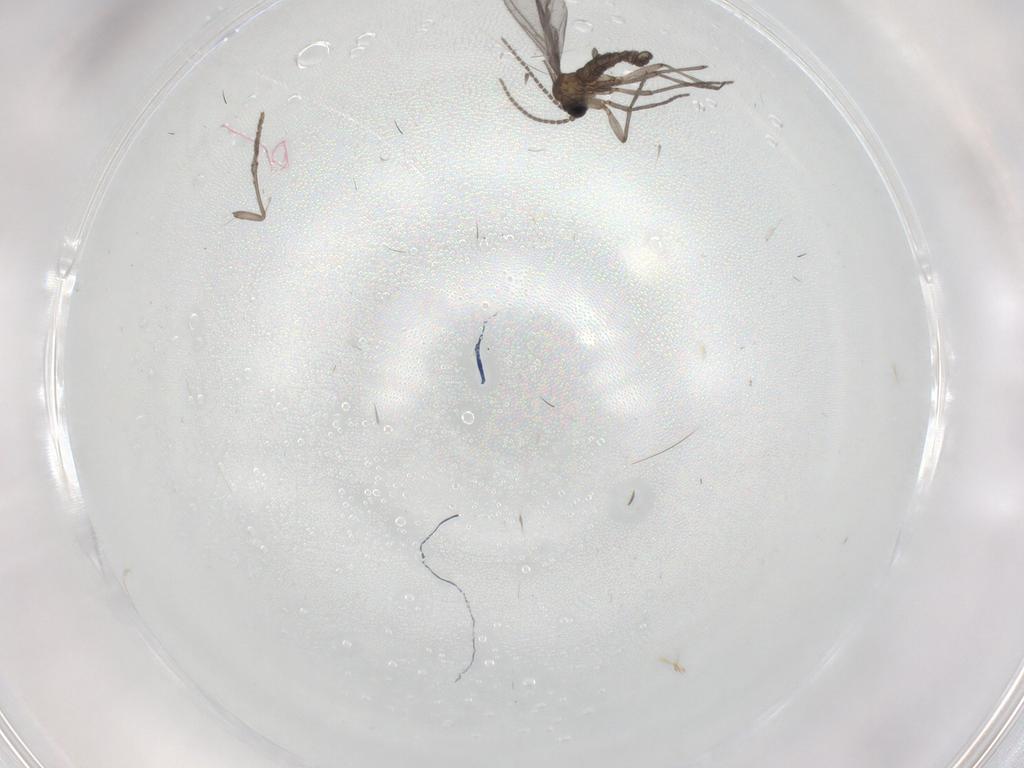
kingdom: Animalia
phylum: Arthropoda
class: Insecta
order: Diptera
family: Sciaridae
